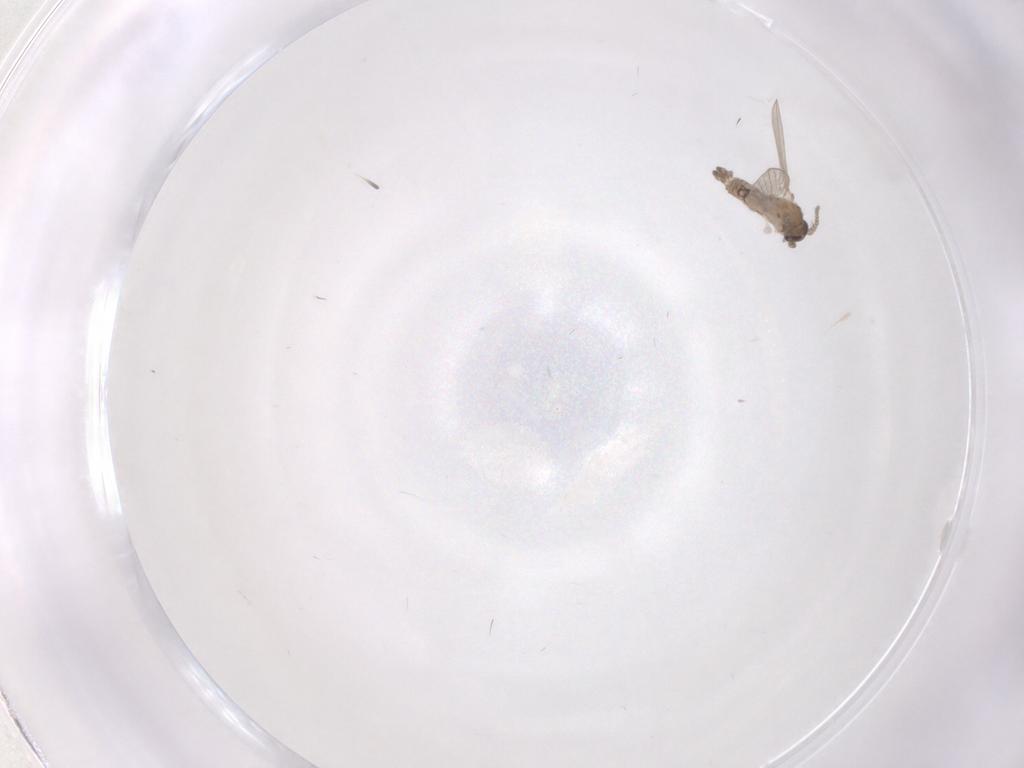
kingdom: Animalia
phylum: Arthropoda
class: Insecta
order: Diptera
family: Psychodidae
